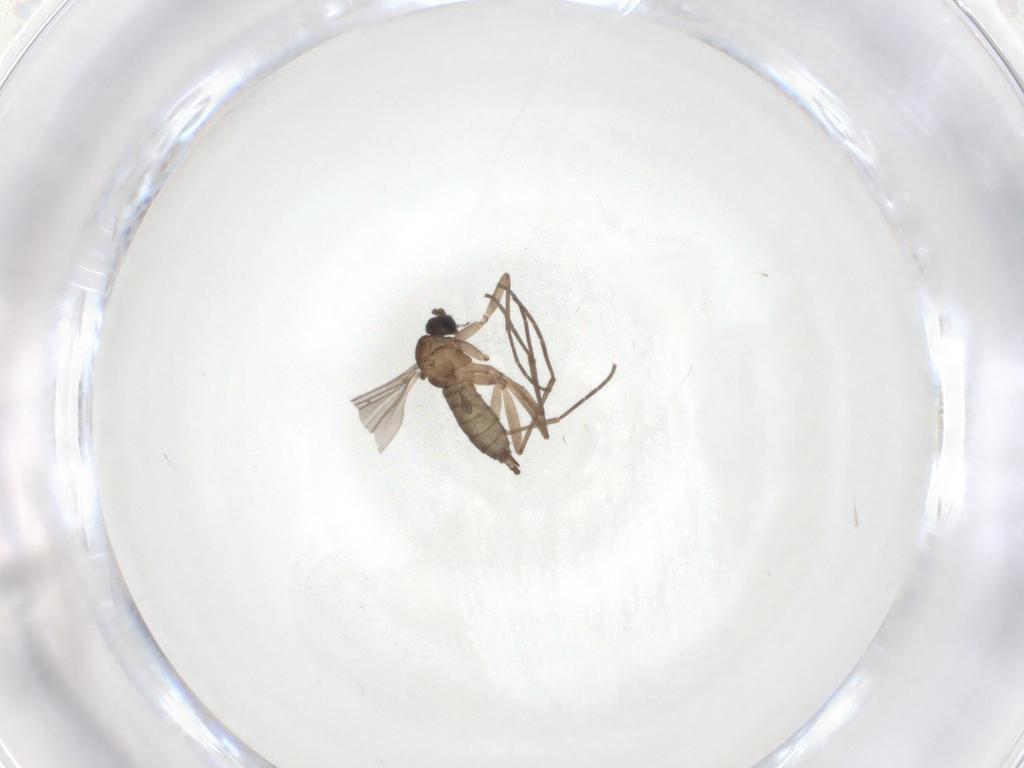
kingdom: Animalia
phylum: Arthropoda
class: Insecta
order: Diptera
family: Sciaridae
